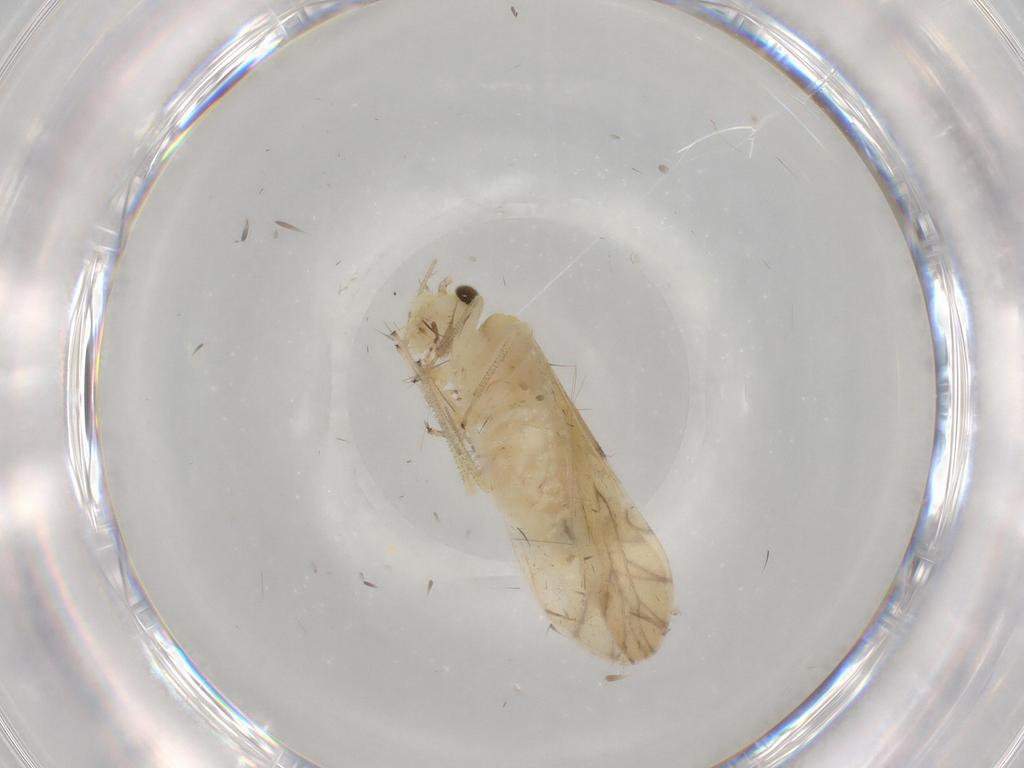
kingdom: Animalia
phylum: Arthropoda
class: Insecta
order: Psocodea
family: Caeciliusidae
